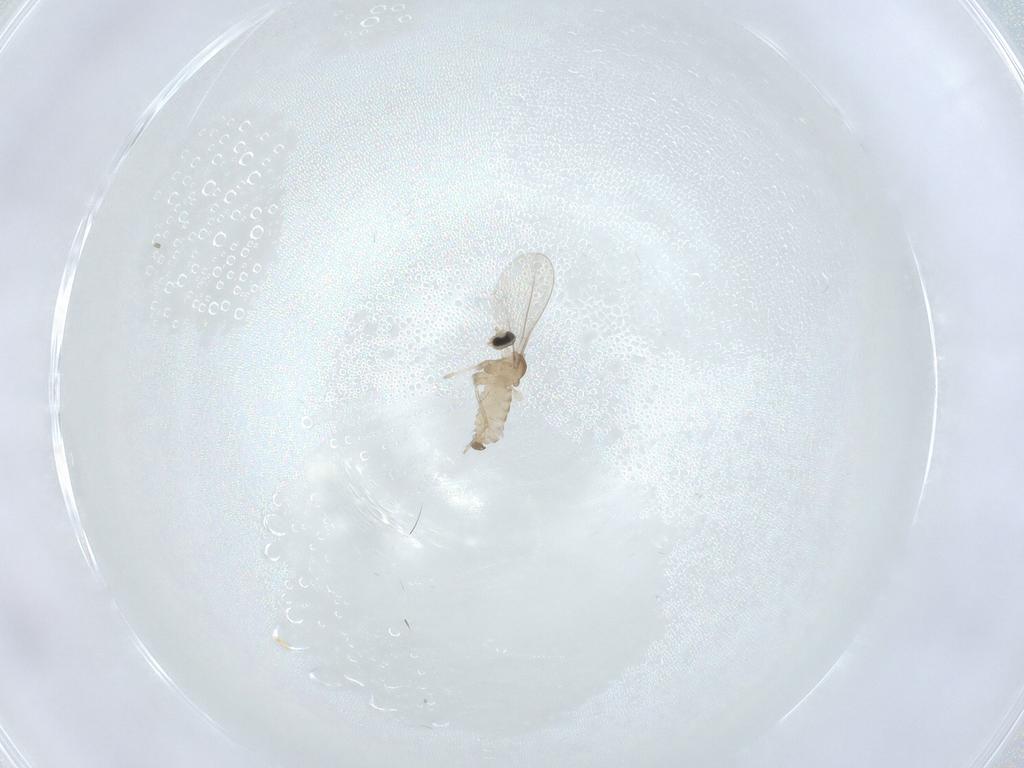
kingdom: Animalia
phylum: Arthropoda
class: Insecta
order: Diptera
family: Cecidomyiidae
